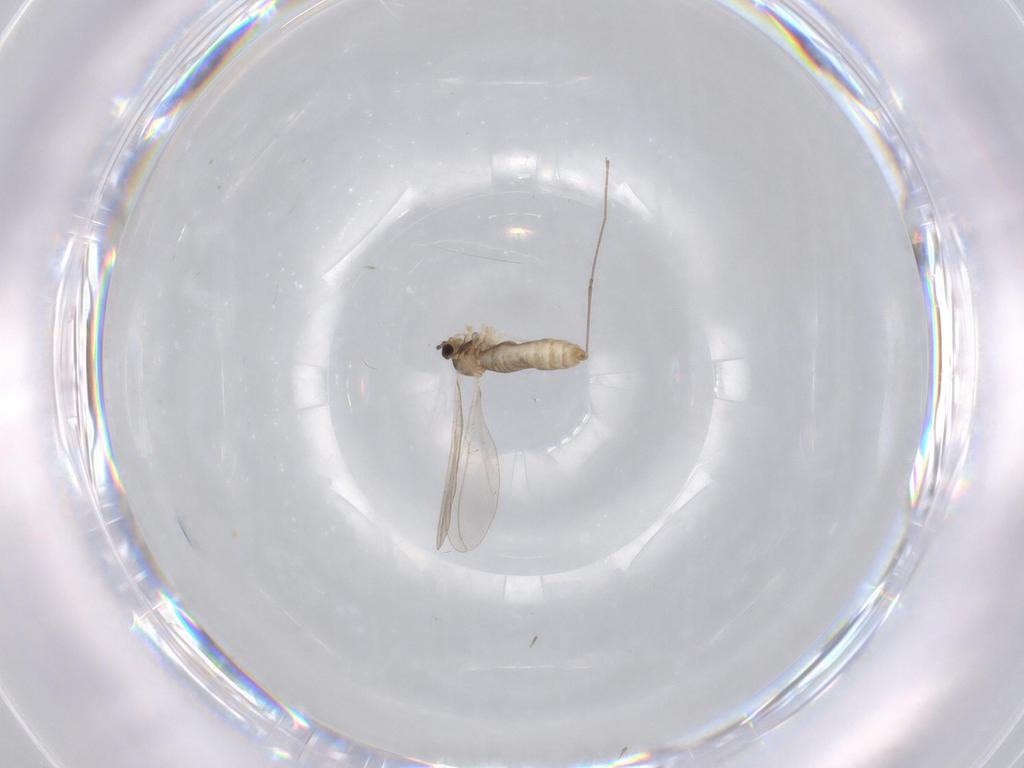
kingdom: Animalia
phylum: Arthropoda
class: Insecta
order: Diptera
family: Cecidomyiidae
